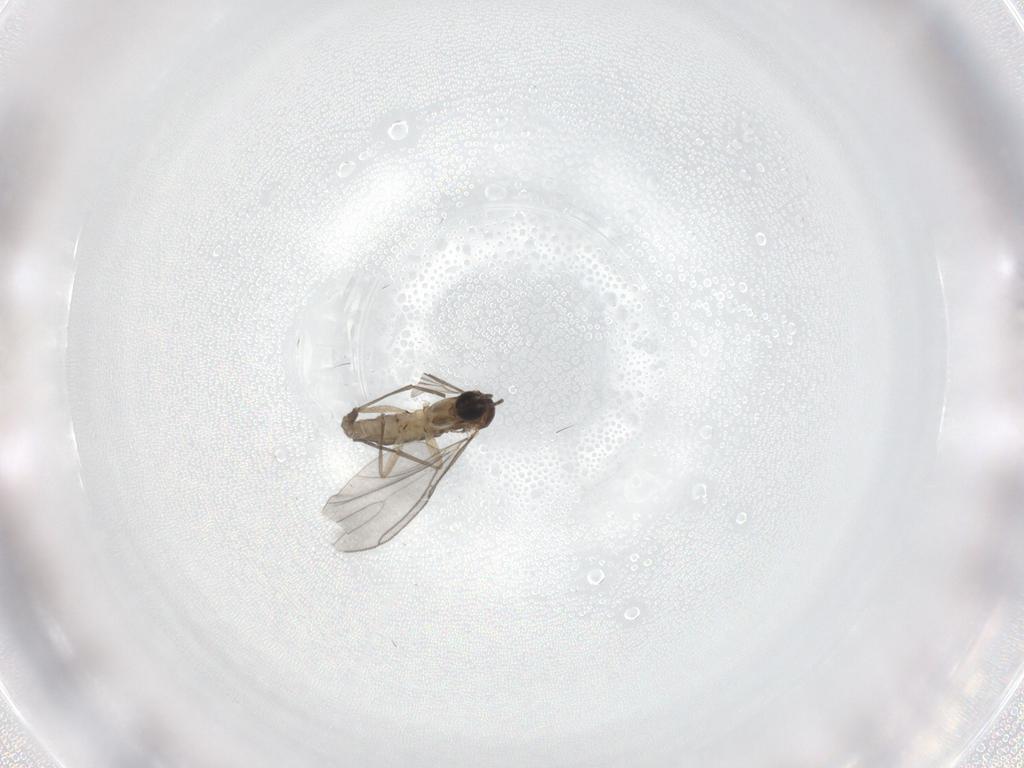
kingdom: Animalia
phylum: Arthropoda
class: Insecta
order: Diptera
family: Sciaridae
